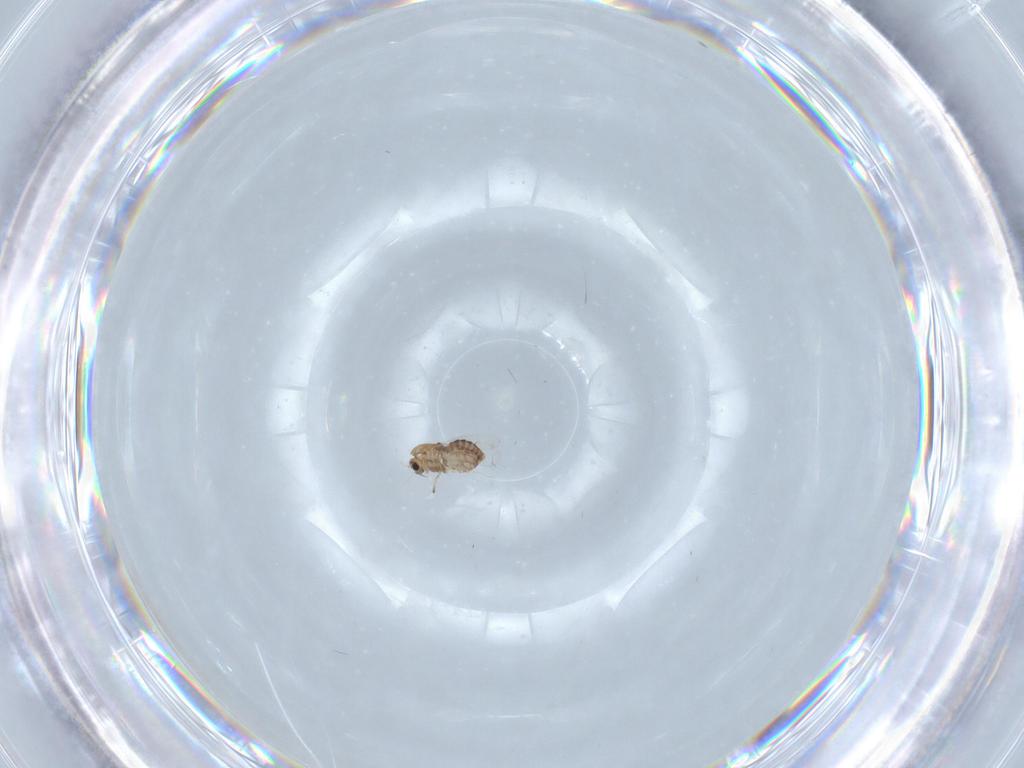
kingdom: Animalia
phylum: Arthropoda
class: Insecta
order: Diptera
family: Chironomidae
